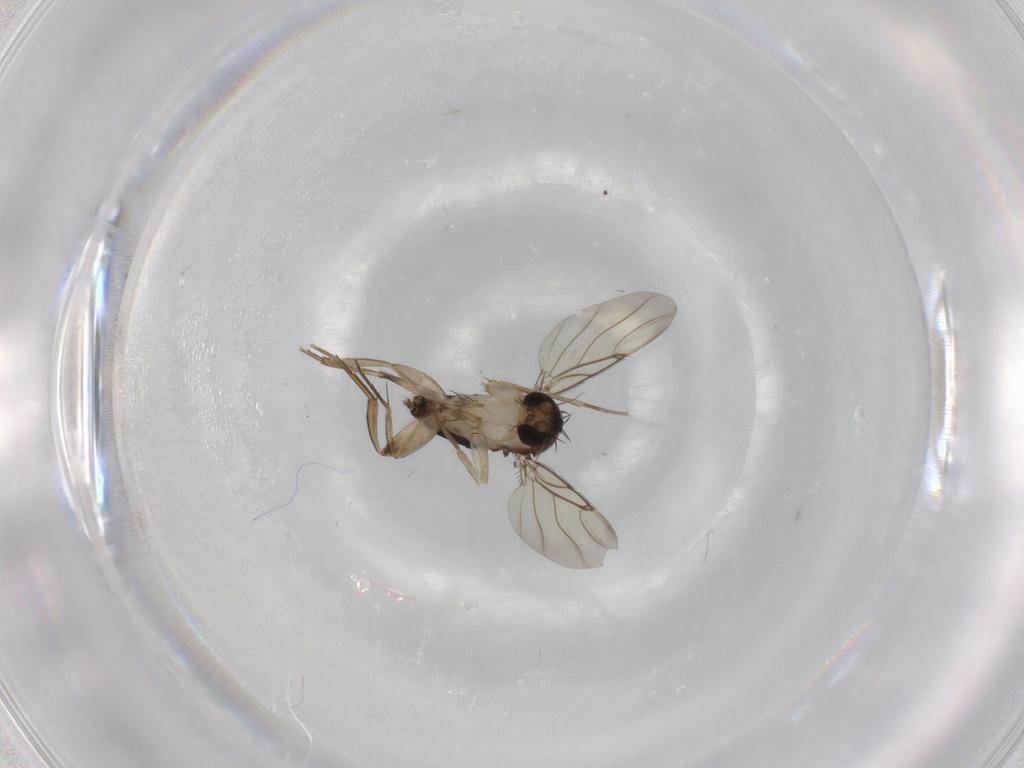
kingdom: Animalia
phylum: Arthropoda
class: Insecta
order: Diptera
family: Phoridae
